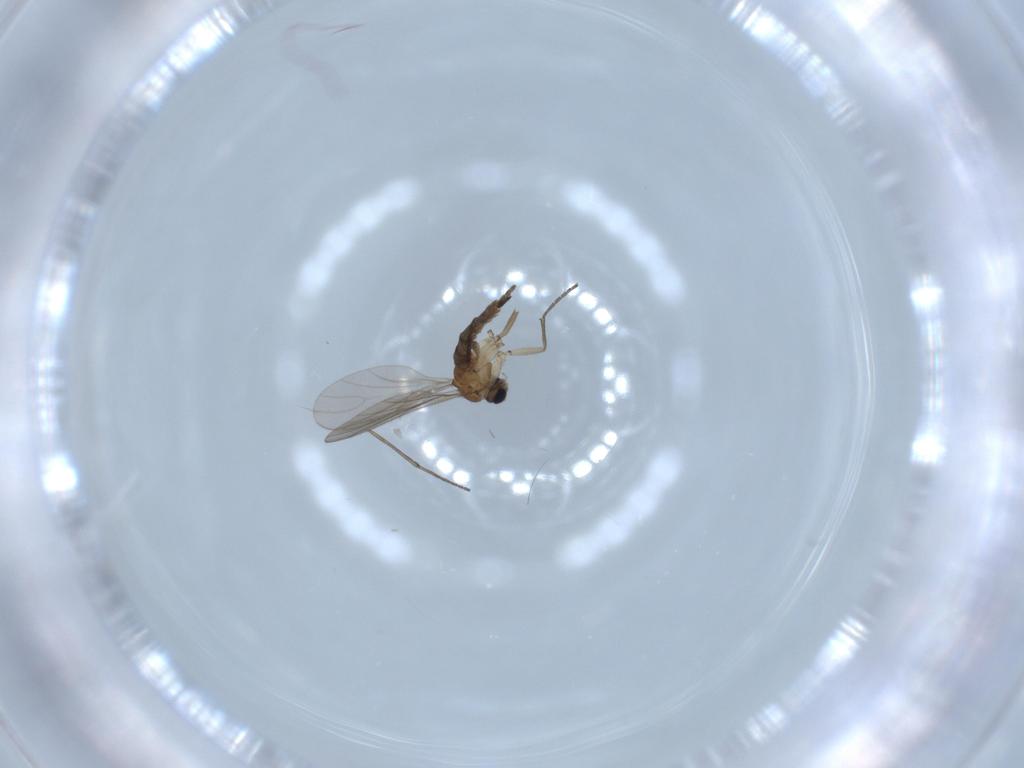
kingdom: Animalia
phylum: Arthropoda
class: Insecta
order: Diptera
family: Sciaridae
